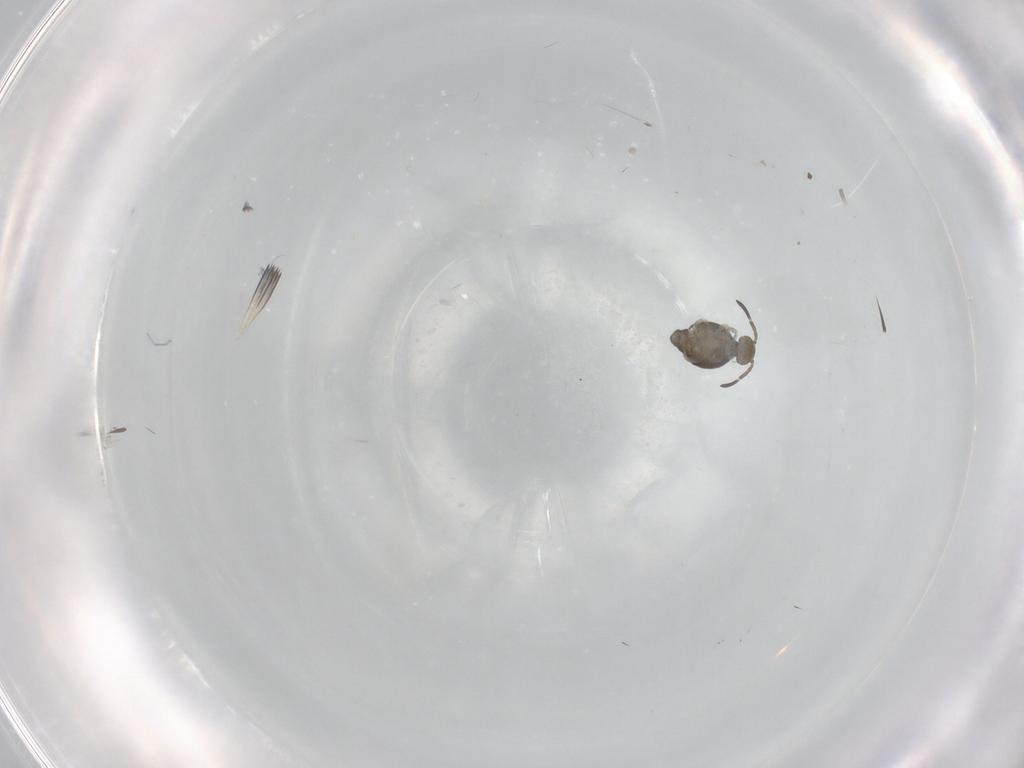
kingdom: Animalia
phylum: Arthropoda
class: Collembola
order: Symphypleona
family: Katiannidae
